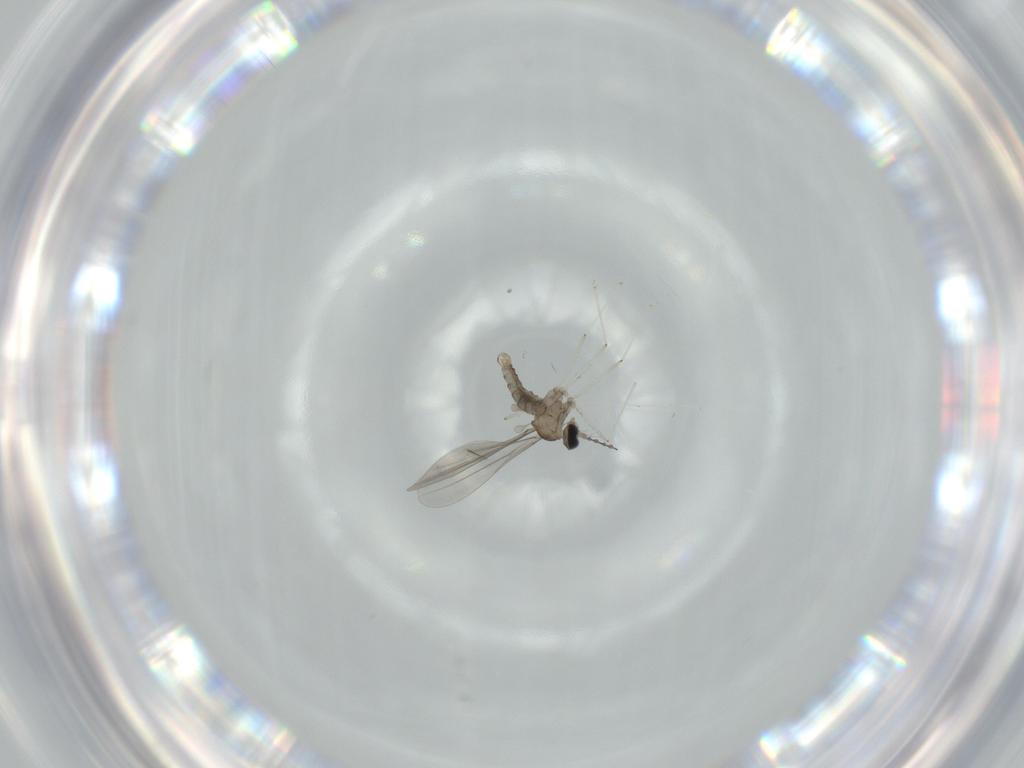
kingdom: Animalia
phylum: Arthropoda
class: Insecta
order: Diptera
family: Cecidomyiidae
